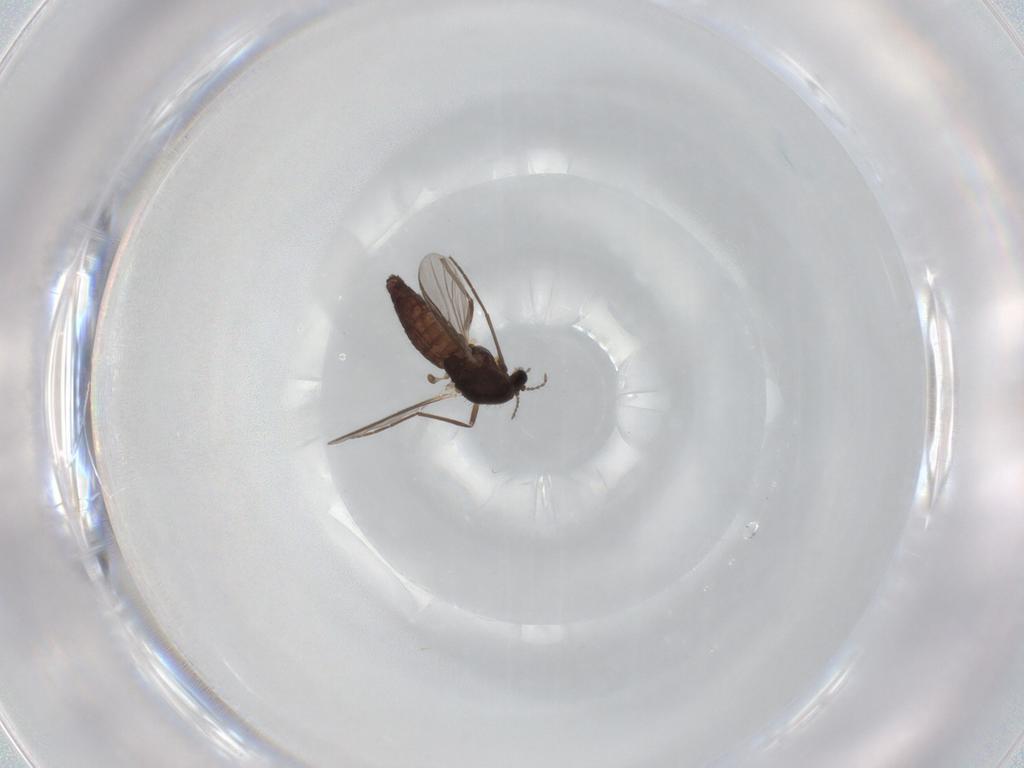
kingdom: Animalia
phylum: Arthropoda
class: Insecta
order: Diptera
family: Chironomidae
